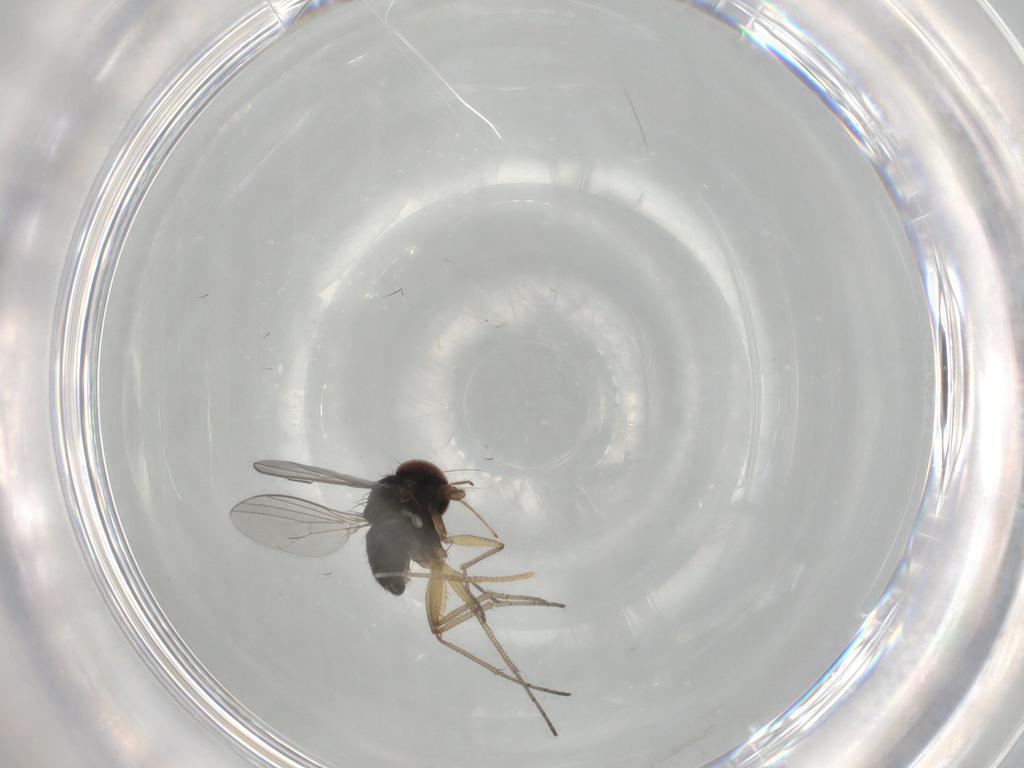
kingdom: Animalia
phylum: Arthropoda
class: Insecta
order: Diptera
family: Dolichopodidae
